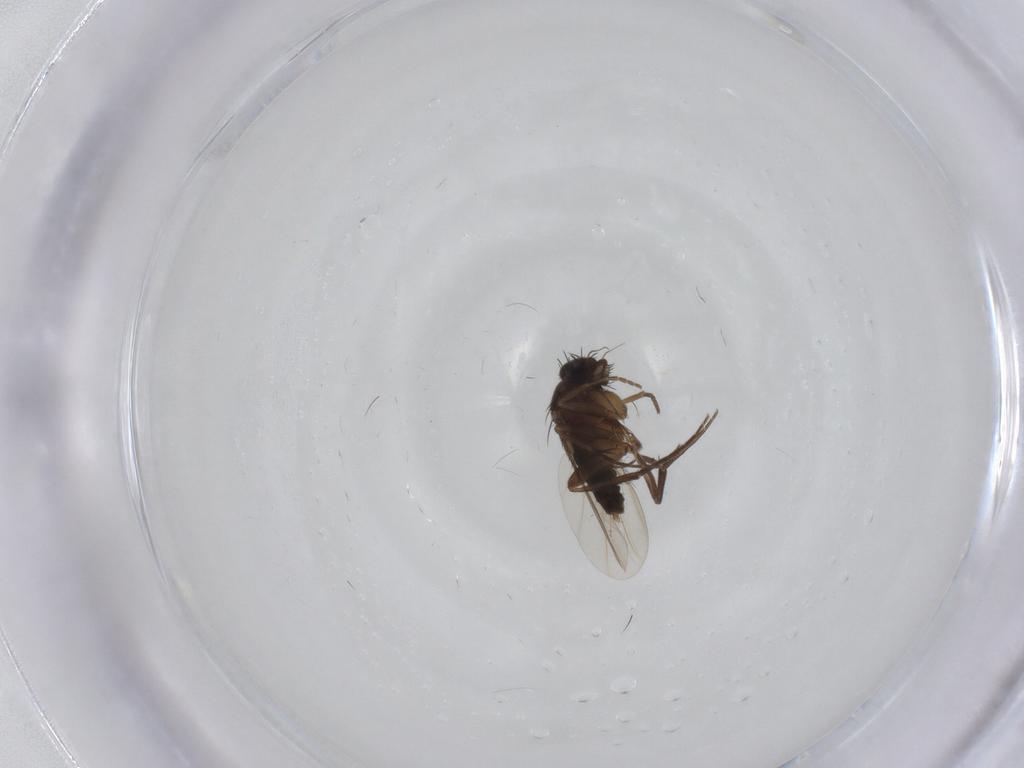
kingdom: Animalia
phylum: Arthropoda
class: Insecta
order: Diptera
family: Phoridae
